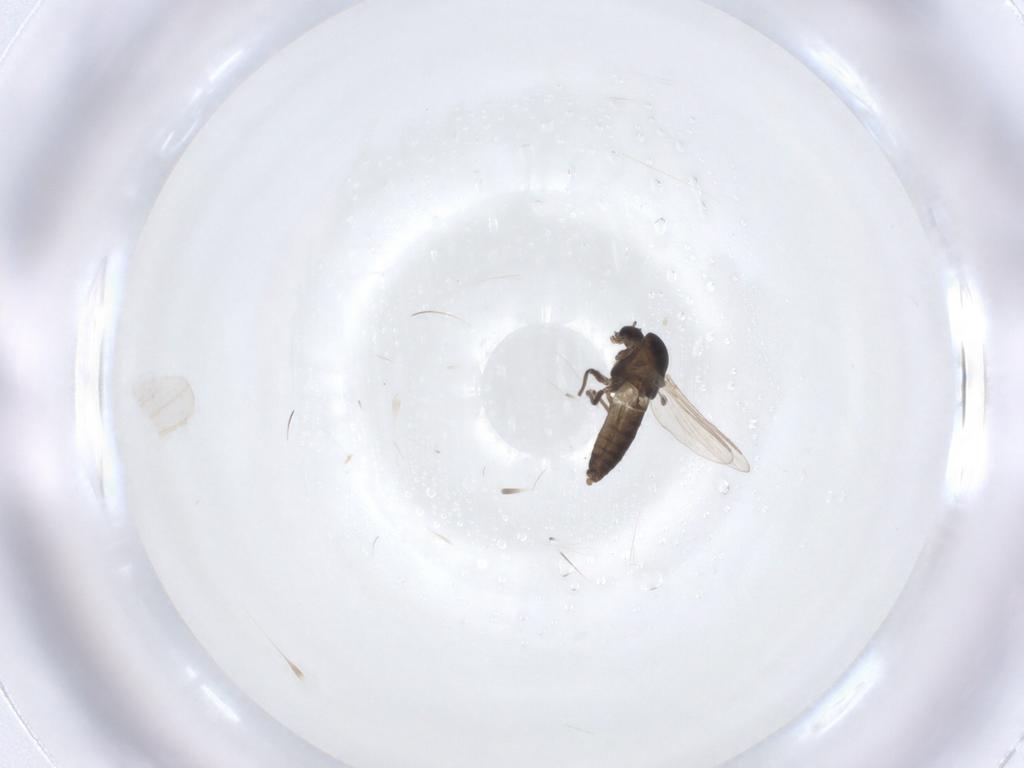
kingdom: Animalia
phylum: Arthropoda
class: Insecta
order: Diptera
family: Chironomidae
